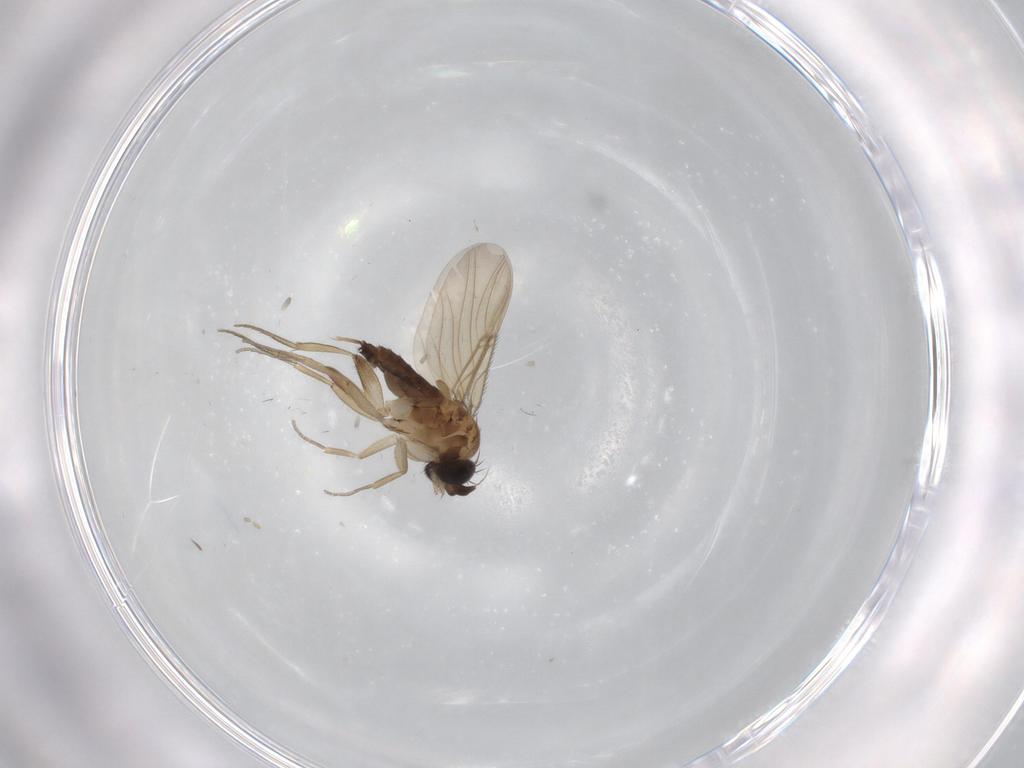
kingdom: Animalia
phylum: Arthropoda
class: Insecta
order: Diptera
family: Phoridae
